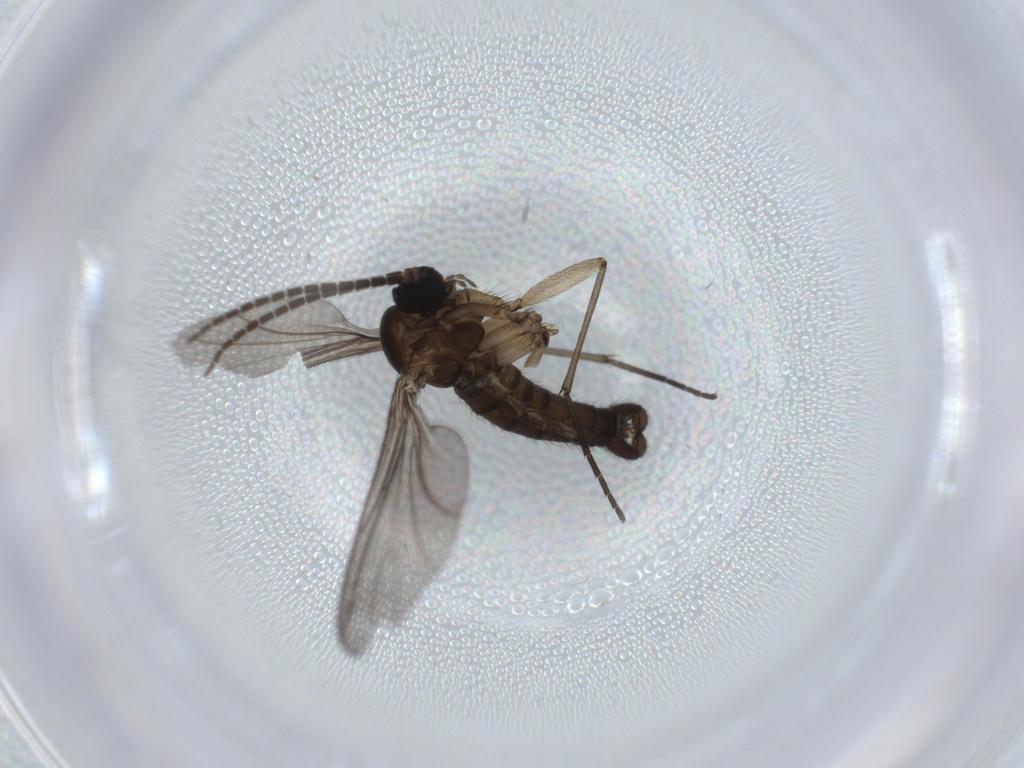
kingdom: Animalia
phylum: Arthropoda
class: Insecta
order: Diptera
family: Sciaridae
